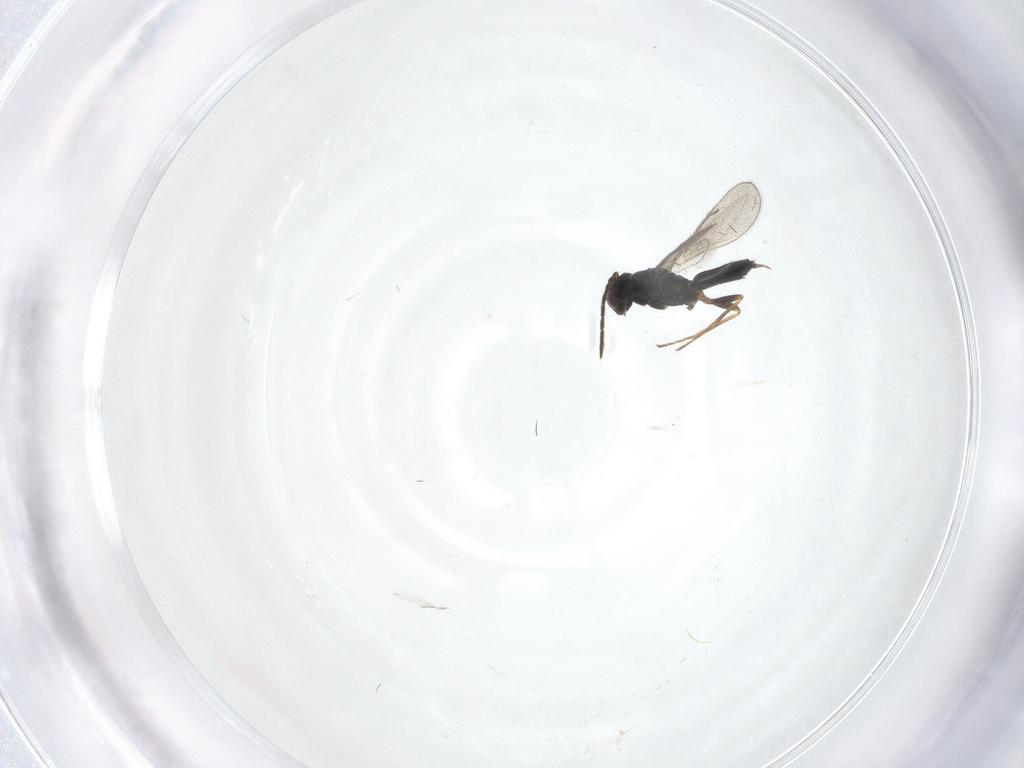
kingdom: Animalia
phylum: Arthropoda
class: Insecta
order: Hymenoptera
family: Eulophidae
